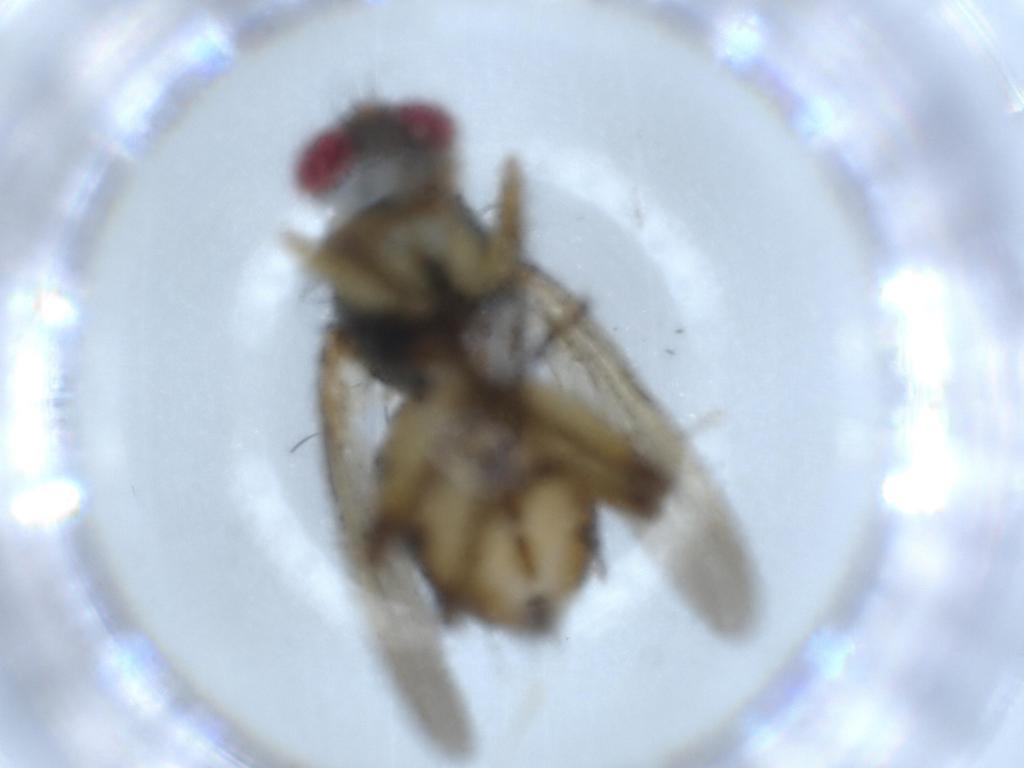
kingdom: Animalia
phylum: Arthropoda
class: Insecta
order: Diptera
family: Muscidae
